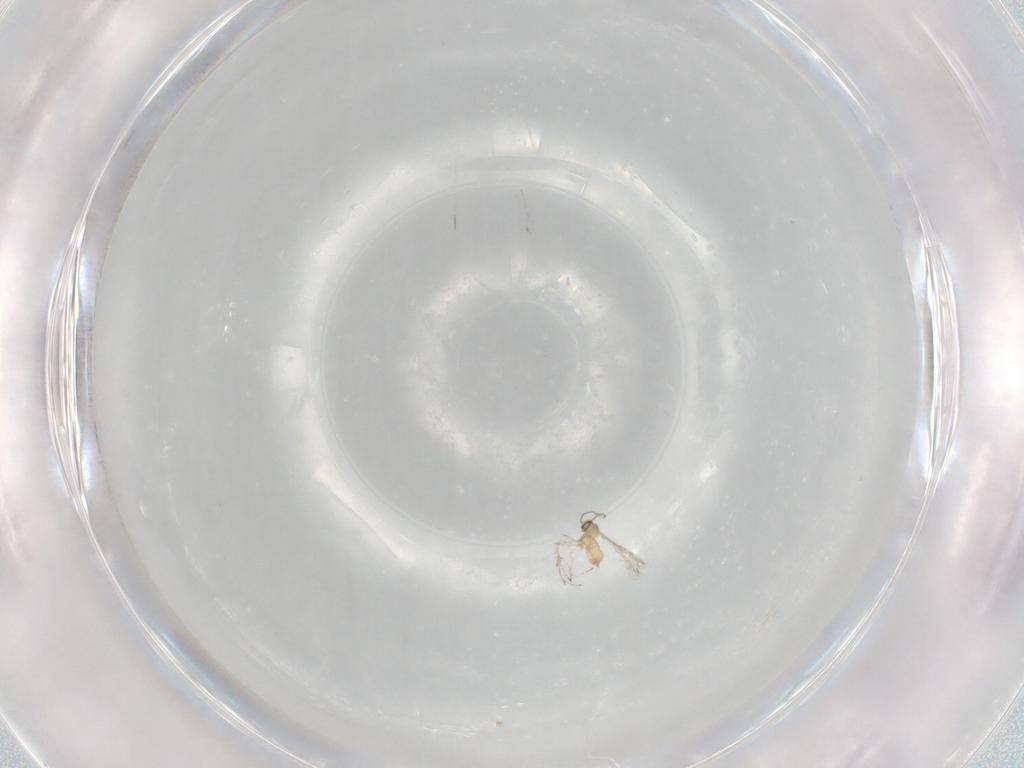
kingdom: Animalia
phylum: Arthropoda
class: Insecta
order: Diptera
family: Cecidomyiidae
